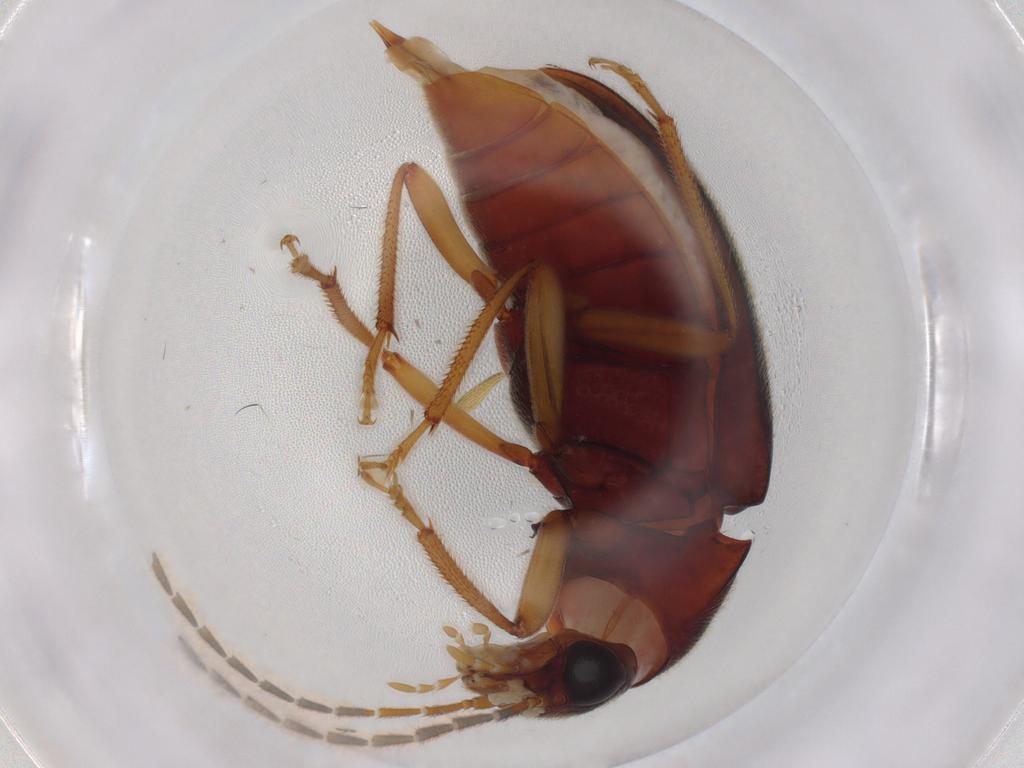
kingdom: Animalia
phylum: Arthropoda
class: Insecta
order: Coleoptera
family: Ptilodactylidae
